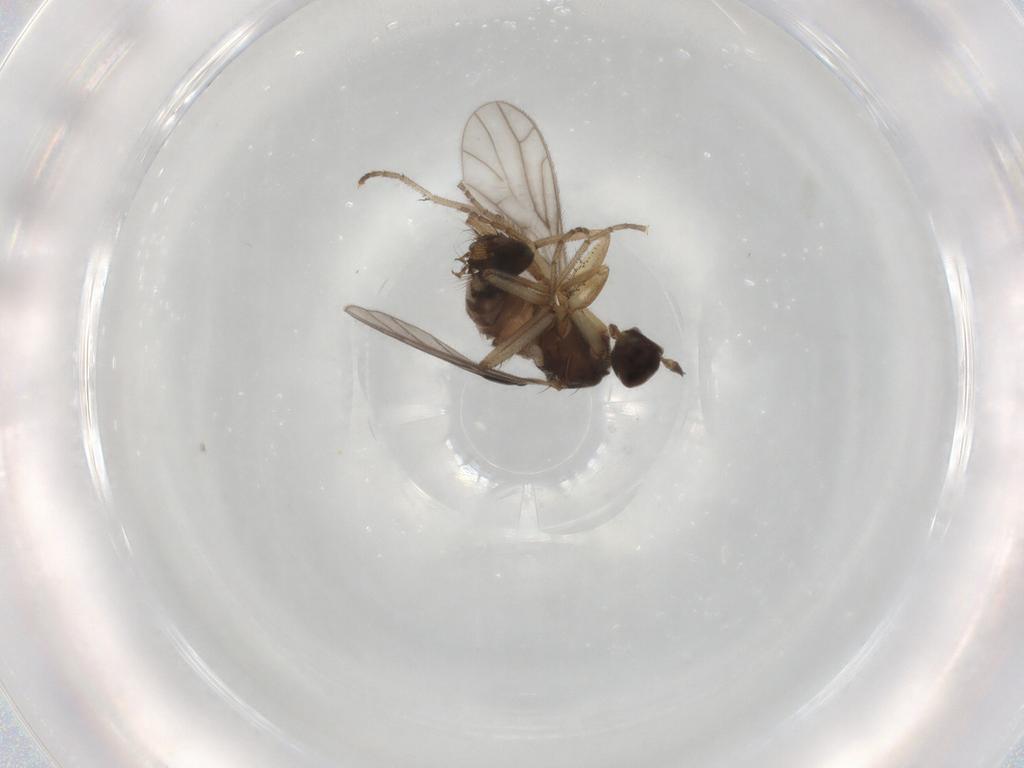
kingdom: Animalia
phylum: Arthropoda
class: Insecta
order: Diptera
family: Empididae
